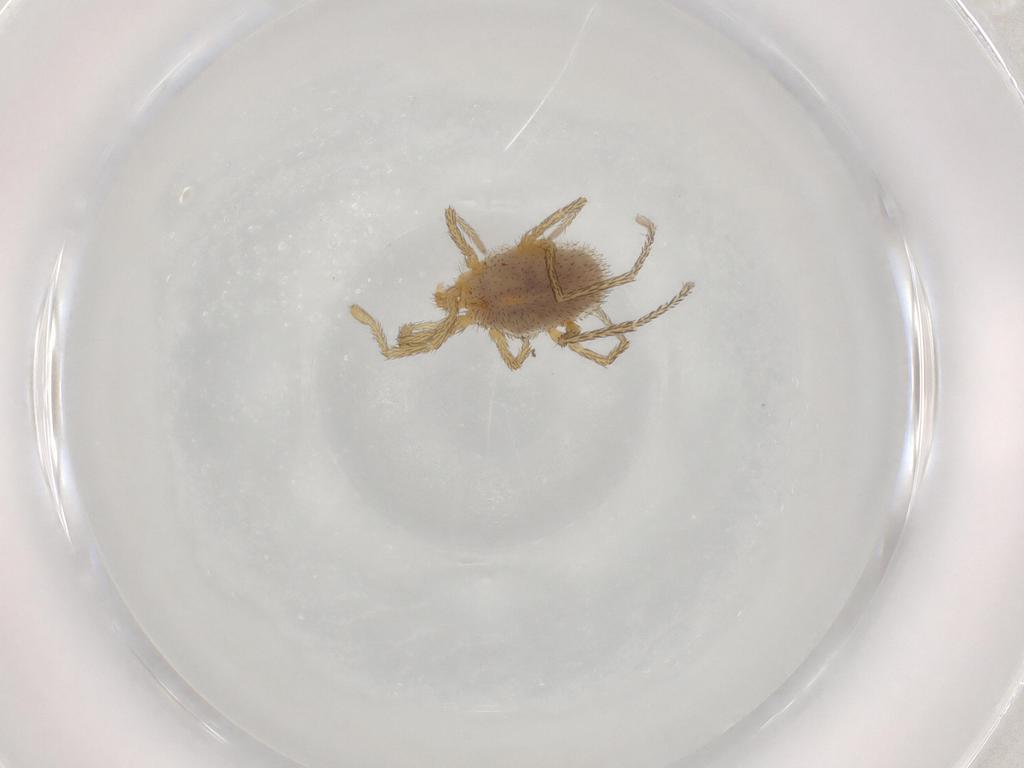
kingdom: Animalia
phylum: Arthropoda
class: Arachnida
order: Trombidiformes
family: Erythraeidae
